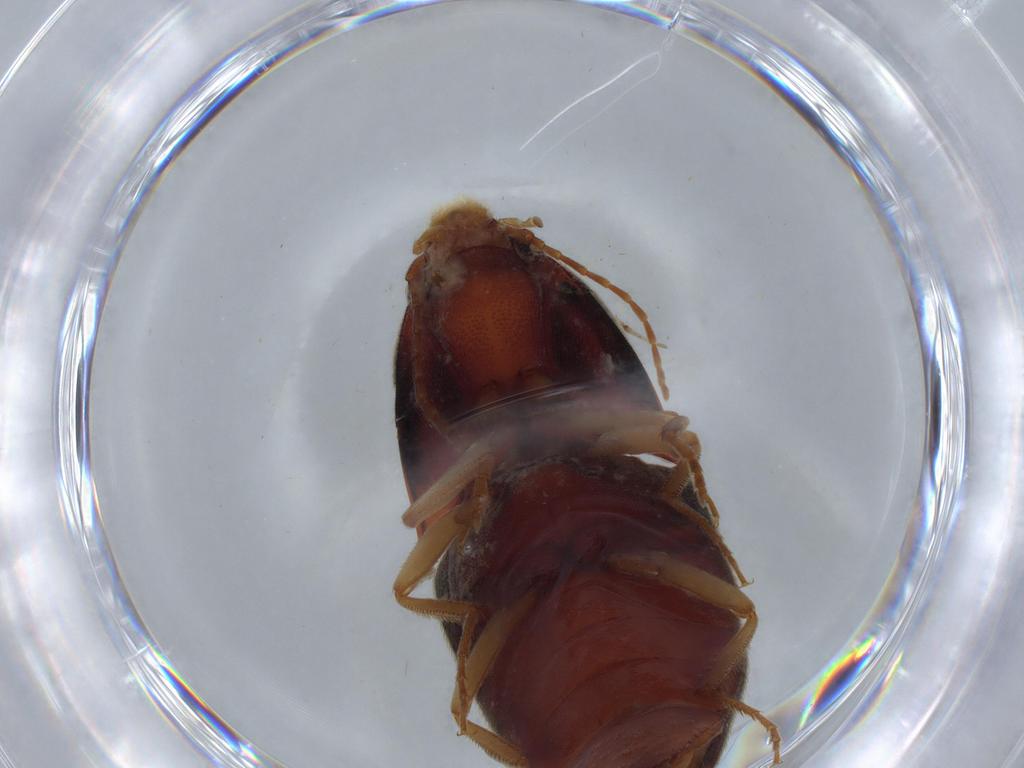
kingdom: Animalia
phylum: Arthropoda
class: Insecta
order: Coleoptera
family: Elateridae
